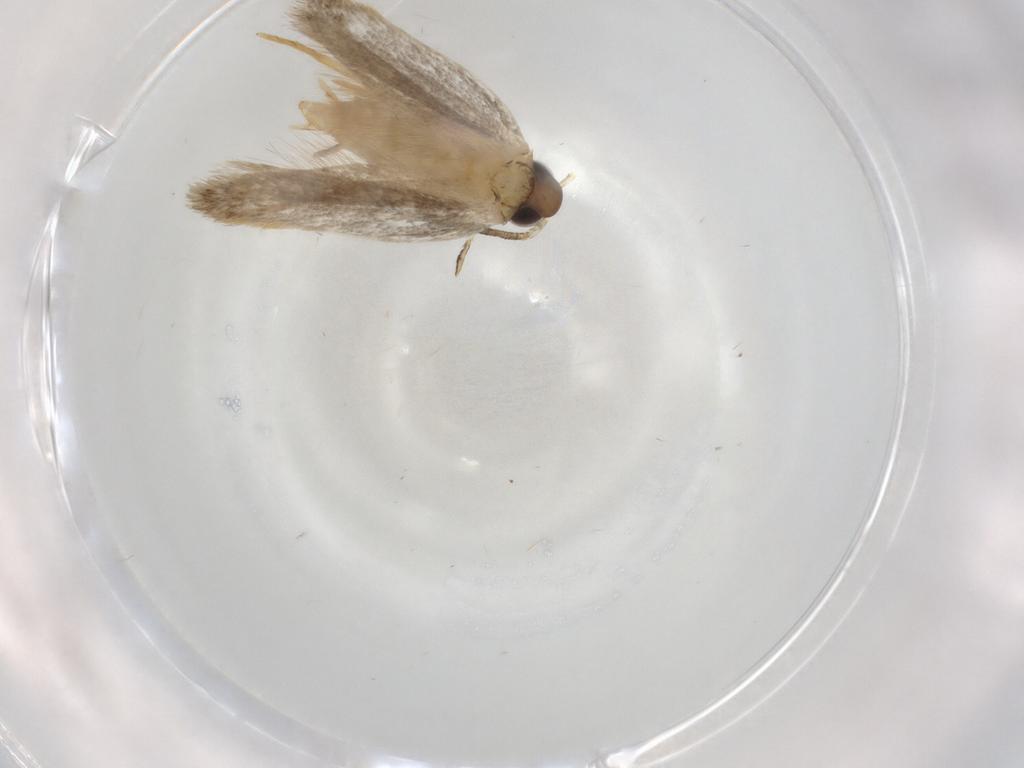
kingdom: Animalia
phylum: Arthropoda
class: Insecta
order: Lepidoptera
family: Autostichidae
